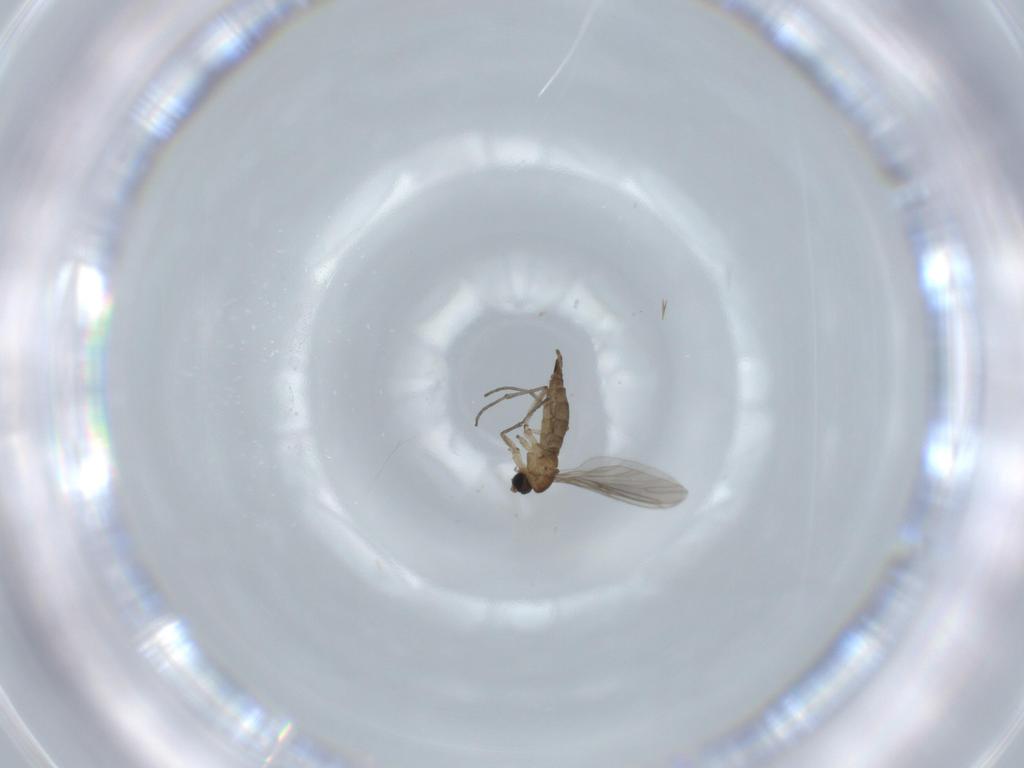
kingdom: Animalia
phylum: Arthropoda
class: Insecta
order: Diptera
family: Sciaridae
